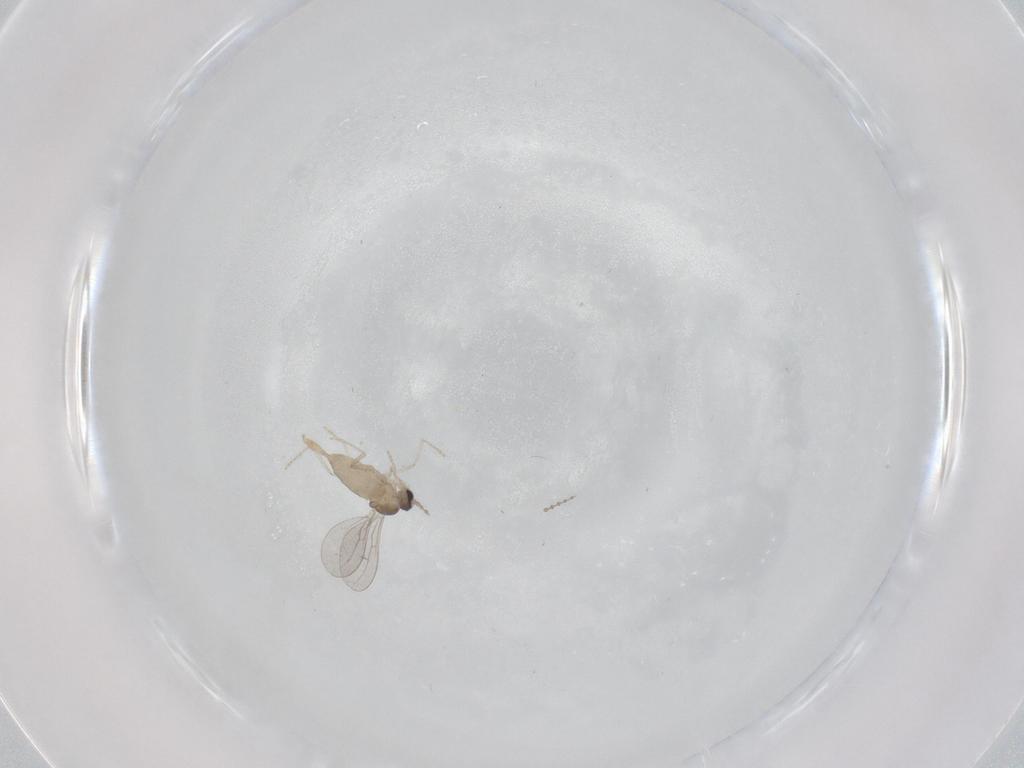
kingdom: Animalia
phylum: Arthropoda
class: Insecta
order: Diptera
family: Cecidomyiidae
